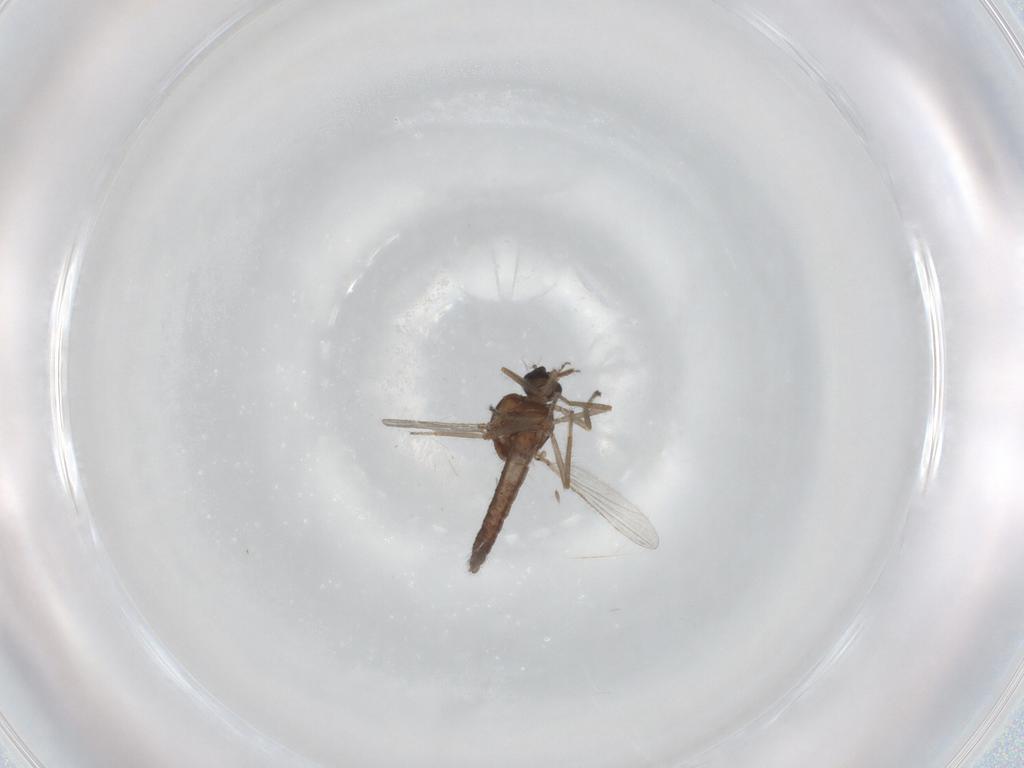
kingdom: Animalia
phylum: Arthropoda
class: Insecta
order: Diptera
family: Ceratopogonidae
